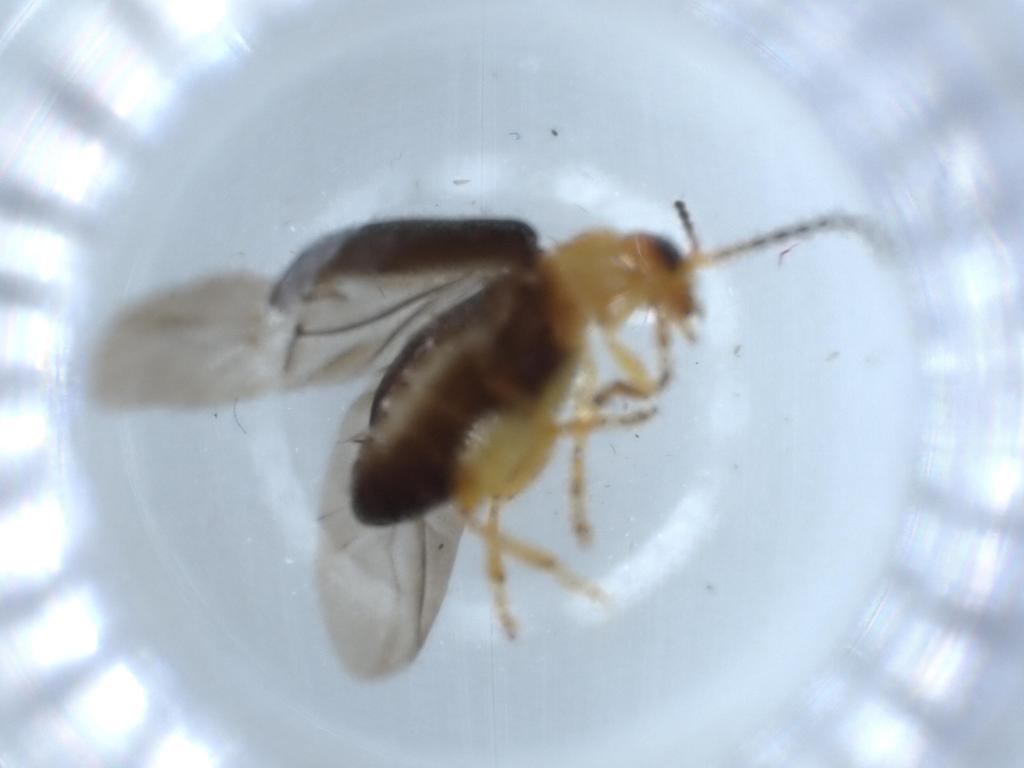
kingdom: Animalia
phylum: Arthropoda
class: Insecta
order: Coleoptera
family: Chrysomelidae
